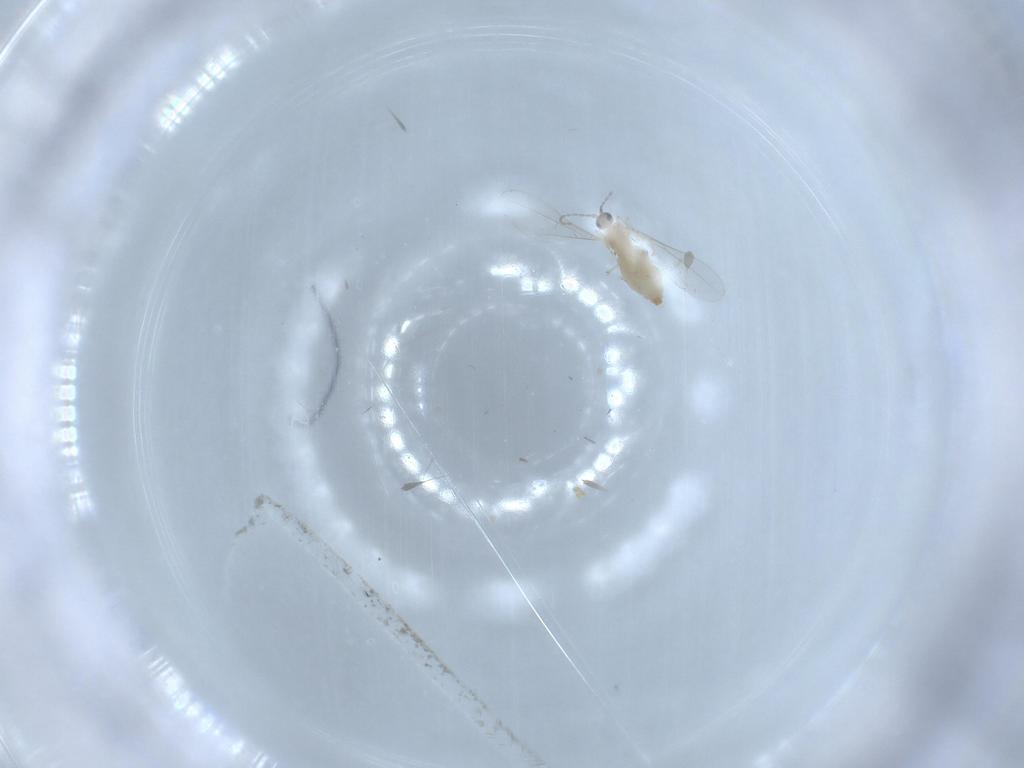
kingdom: Animalia
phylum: Arthropoda
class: Insecta
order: Diptera
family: Cecidomyiidae
